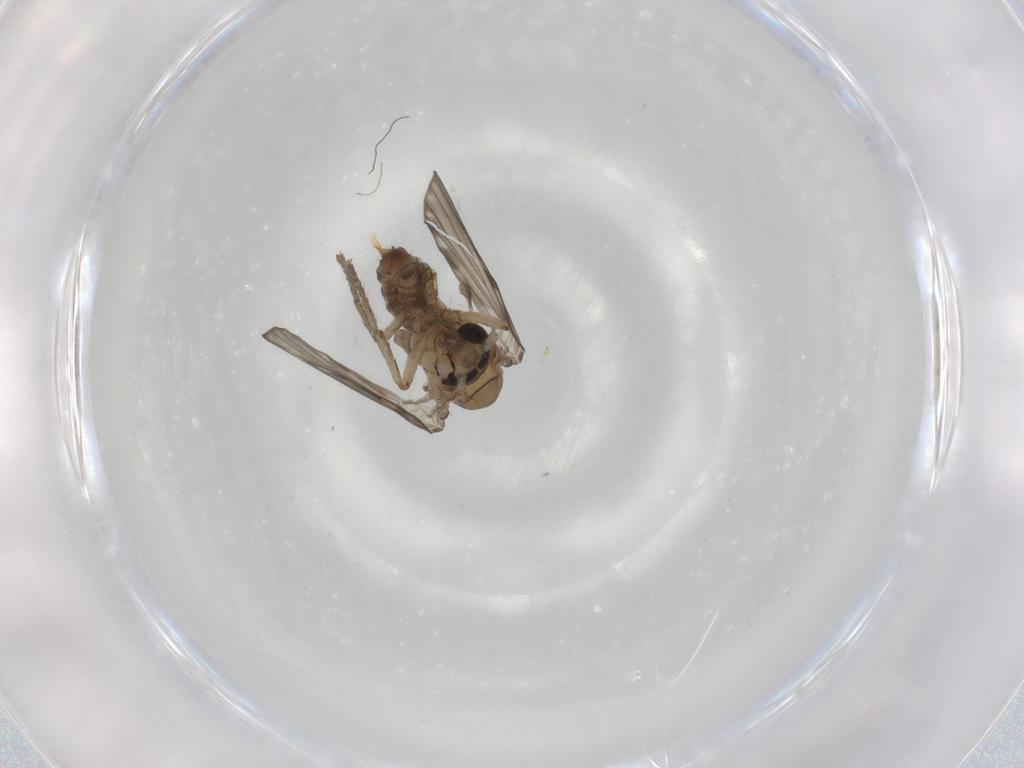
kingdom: Animalia
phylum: Arthropoda
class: Insecta
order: Diptera
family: Psychodidae
